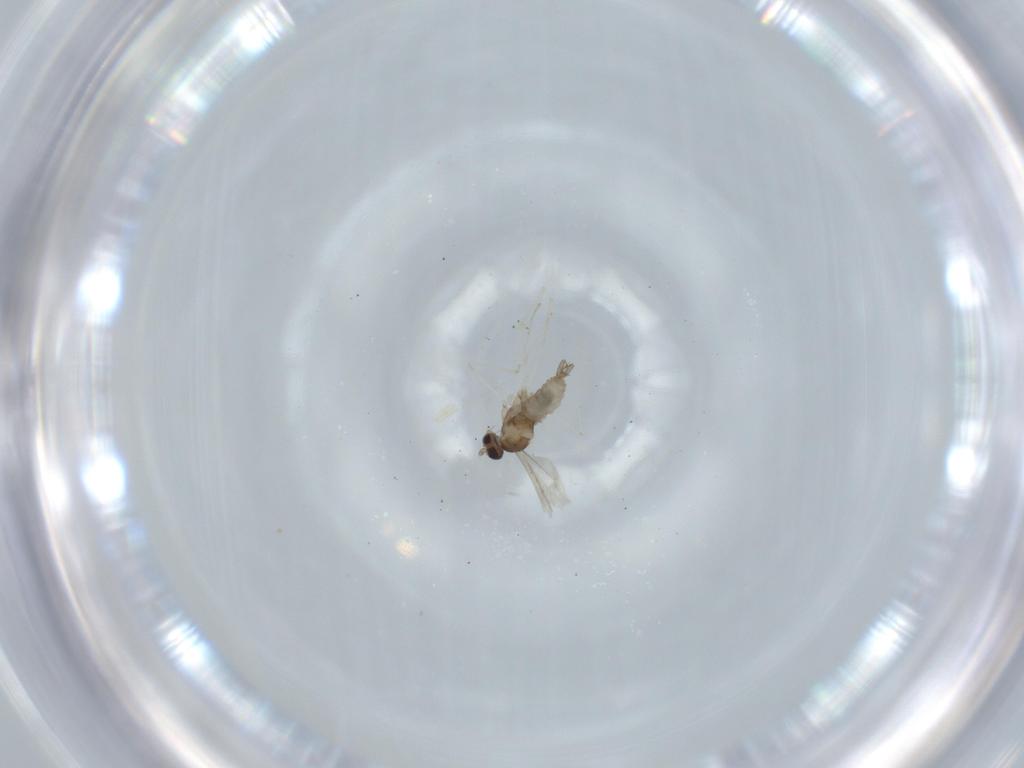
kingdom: Animalia
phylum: Arthropoda
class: Insecta
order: Diptera
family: Cecidomyiidae
